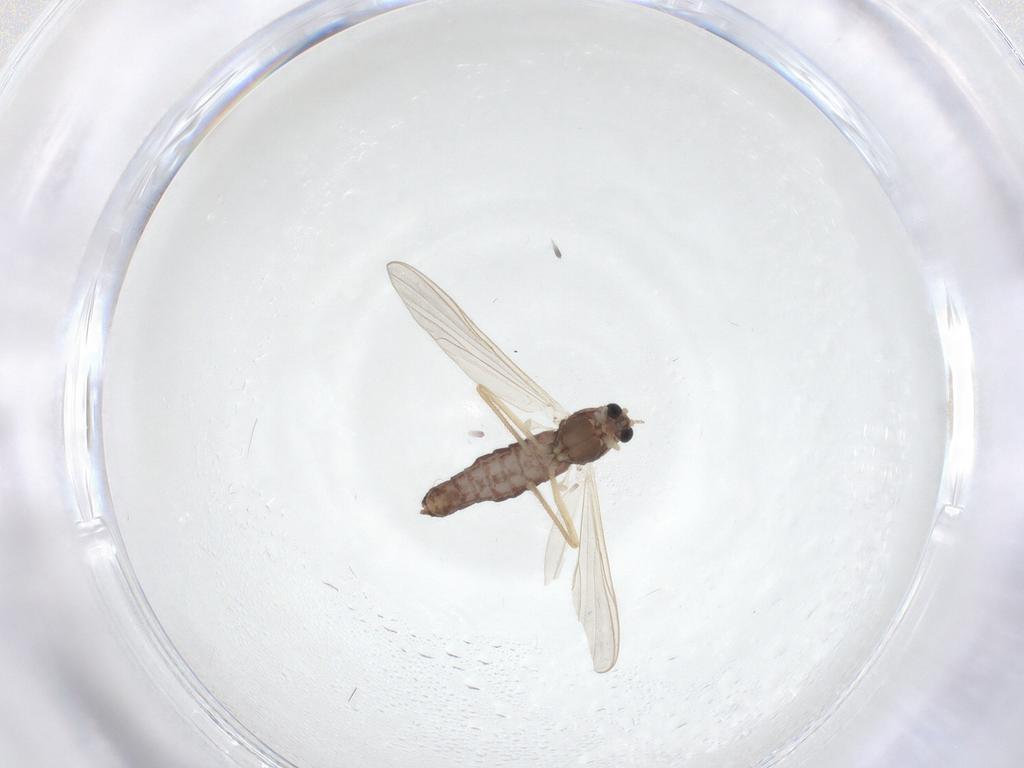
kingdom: Animalia
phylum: Arthropoda
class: Insecta
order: Diptera
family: Chironomidae
